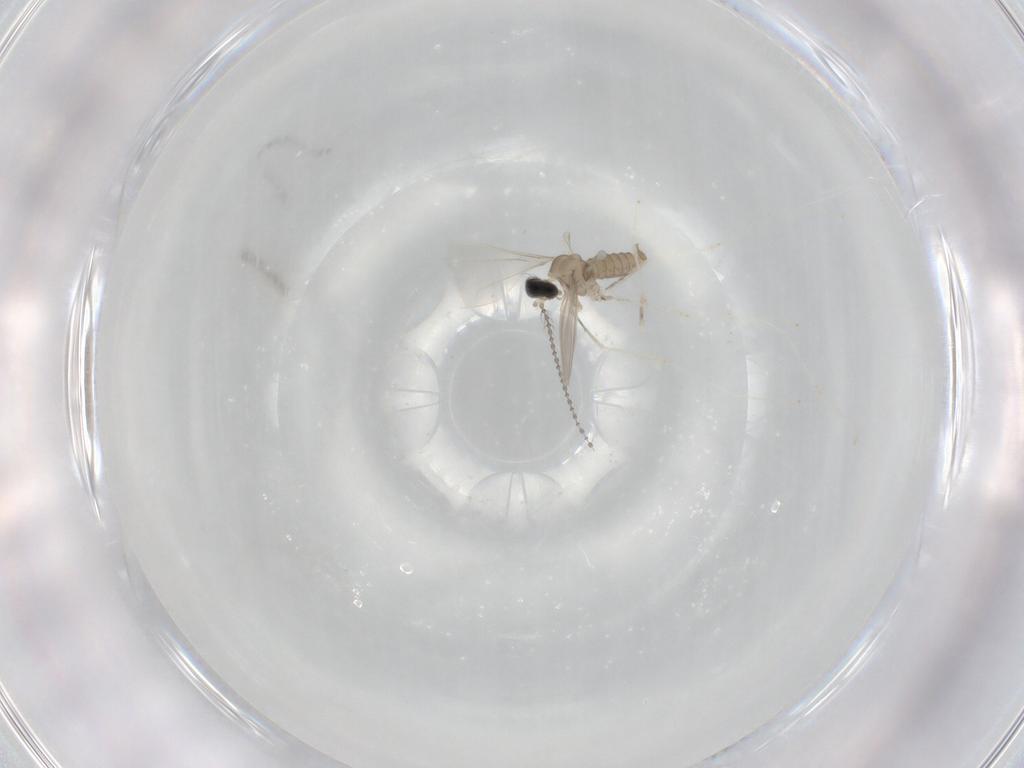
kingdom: Animalia
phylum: Arthropoda
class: Insecta
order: Diptera
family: Cecidomyiidae
